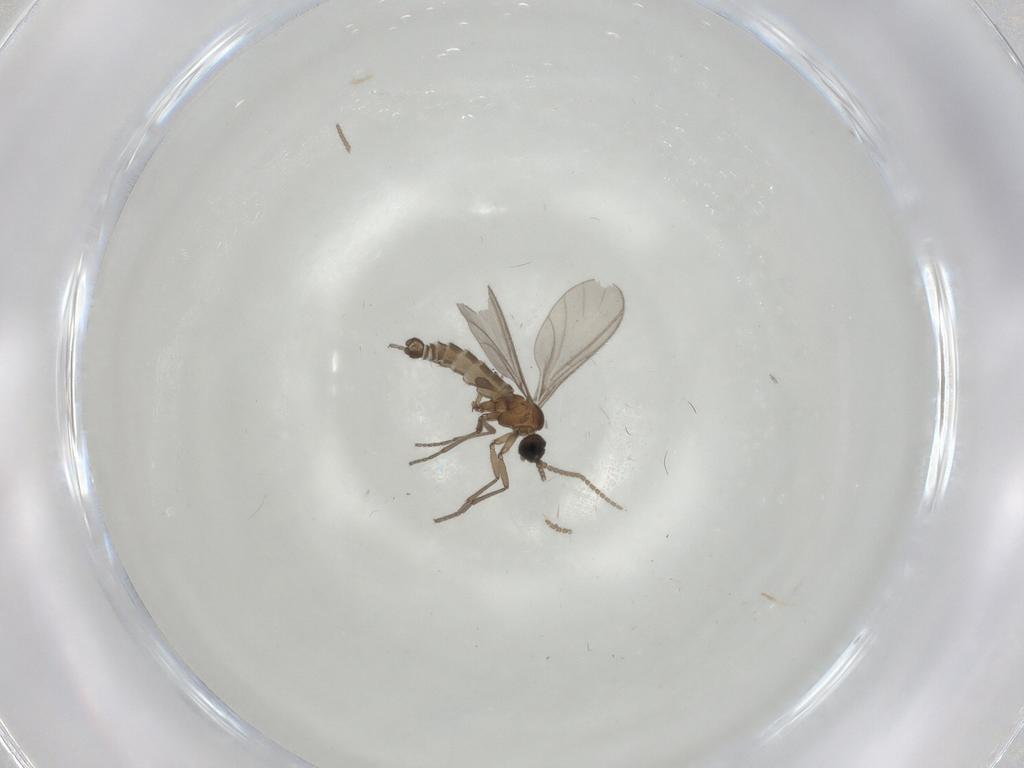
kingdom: Animalia
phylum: Arthropoda
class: Insecta
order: Diptera
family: Sciaridae
